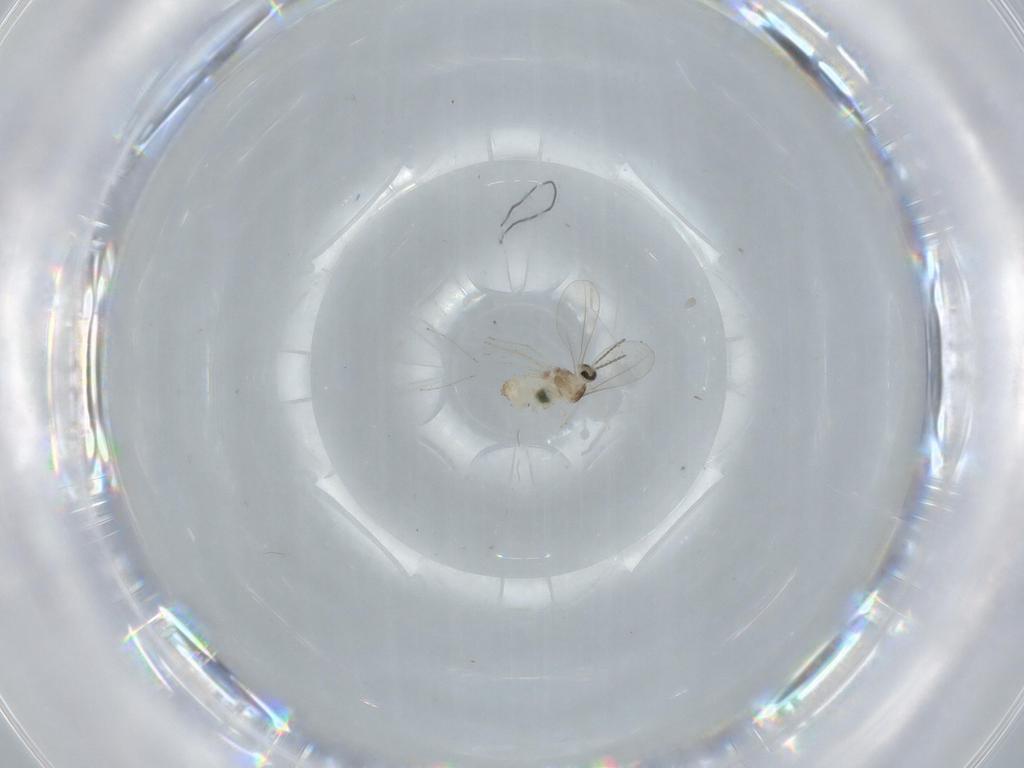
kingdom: Animalia
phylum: Arthropoda
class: Insecta
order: Diptera
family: Cecidomyiidae
